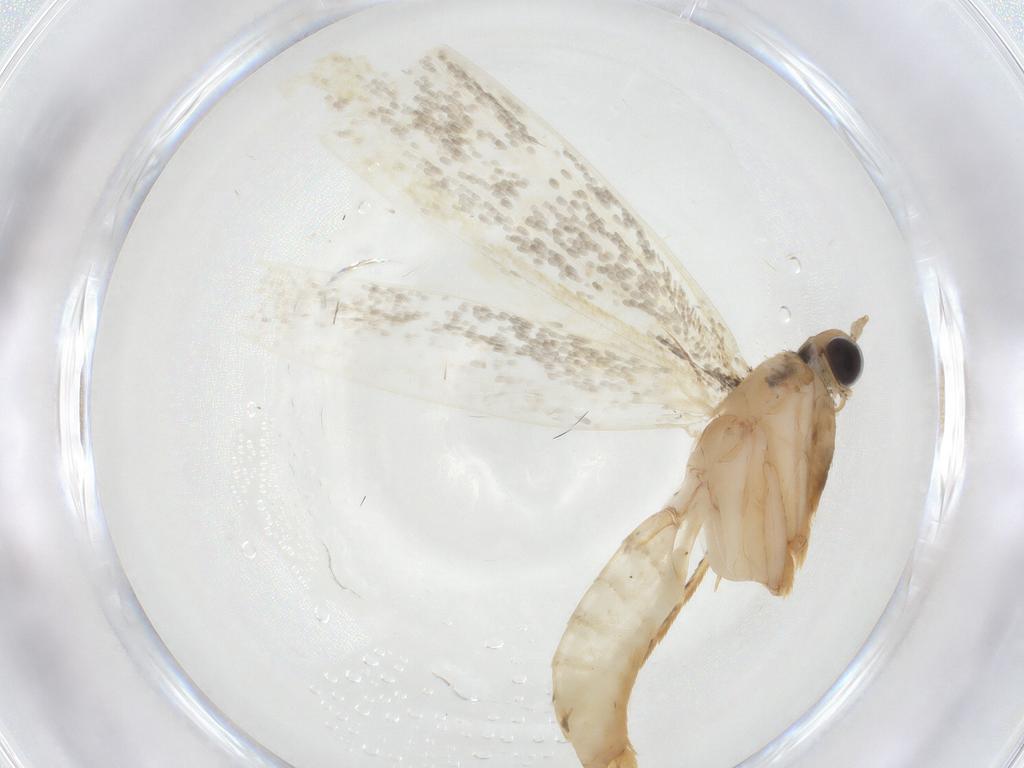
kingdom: Animalia
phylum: Arthropoda
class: Insecta
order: Lepidoptera
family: Tineidae
